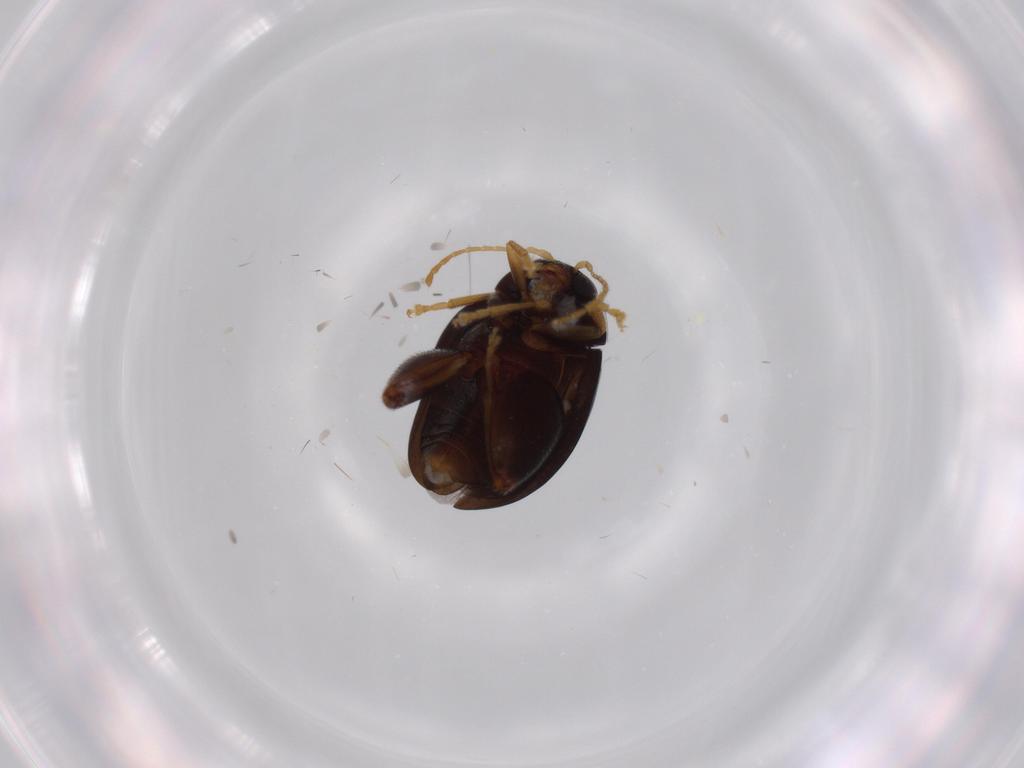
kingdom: Animalia
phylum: Arthropoda
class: Insecta
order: Coleoptera
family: Chrysomelidae
